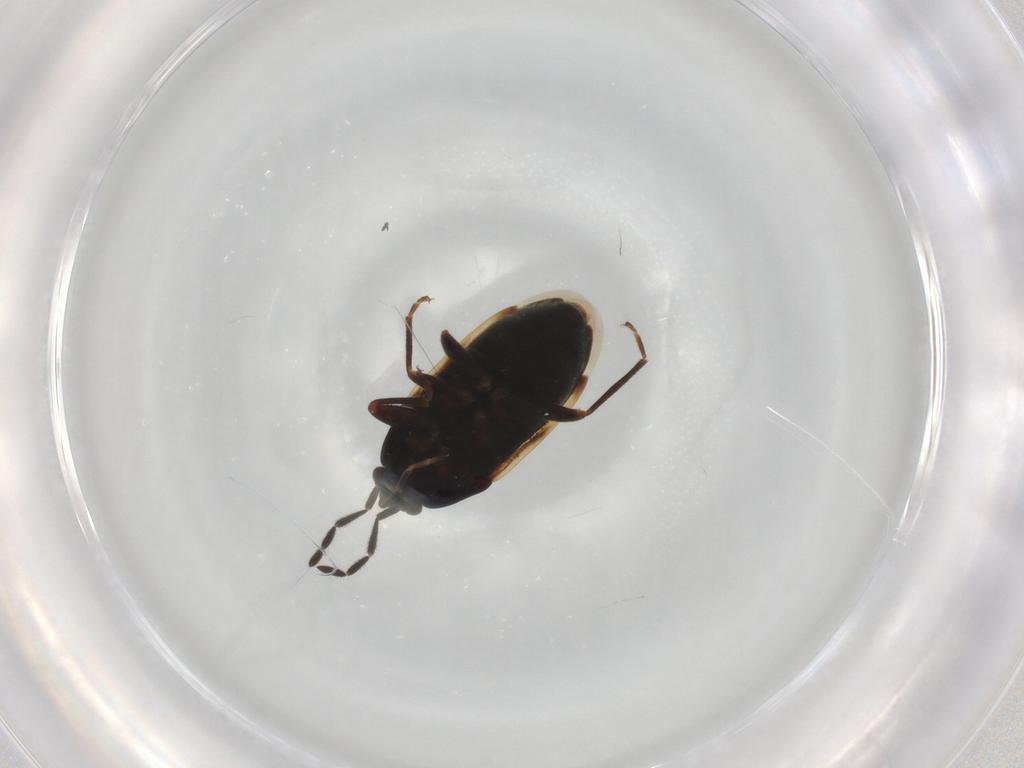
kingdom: Animalia
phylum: Arthropoda
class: Insecta
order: Hemiptera
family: Rhyparochromidae
